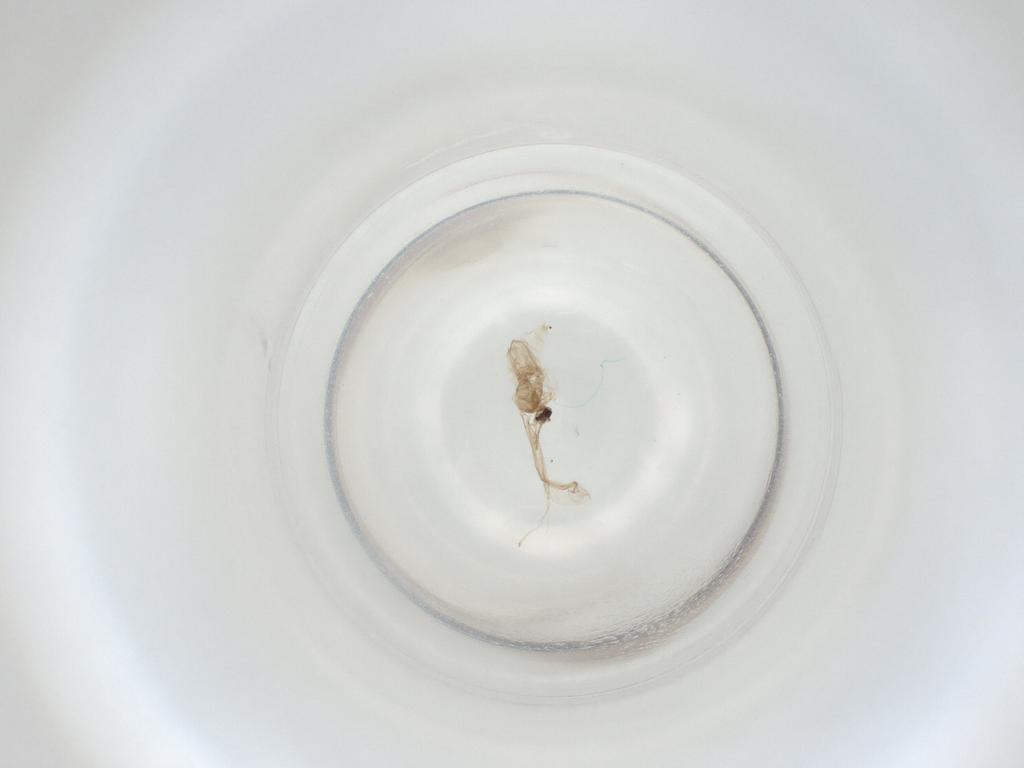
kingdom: Animalia
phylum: Arthropoda
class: Insecta
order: Diptera
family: Cecidomyiidae
